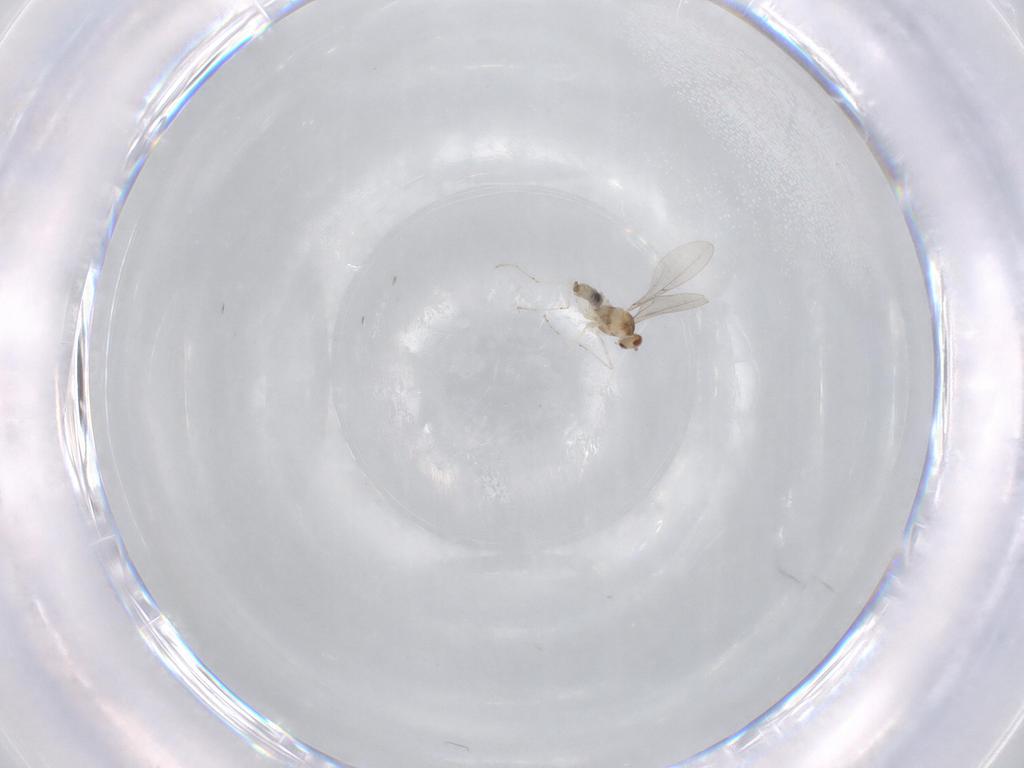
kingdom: Animalia
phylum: Arthropoda
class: Insecta
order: Diptera
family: Cecidomyiidae
